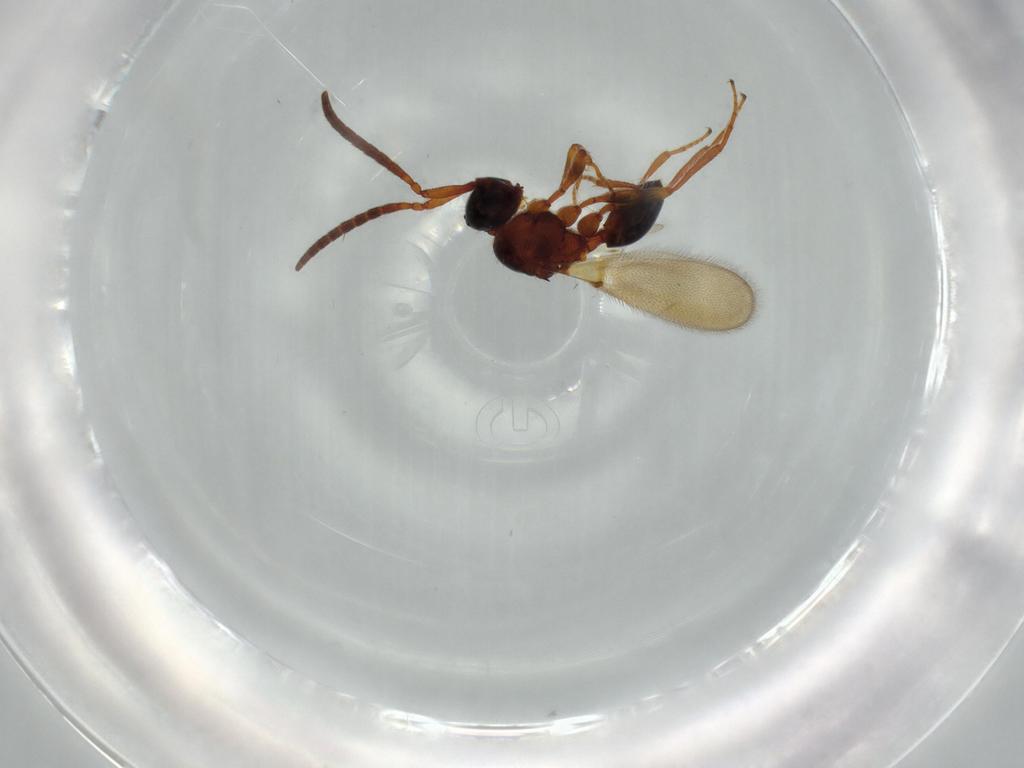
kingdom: Animalia
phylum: Arthropoda
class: Insecta
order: Hymenoptera
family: Diapriidae
